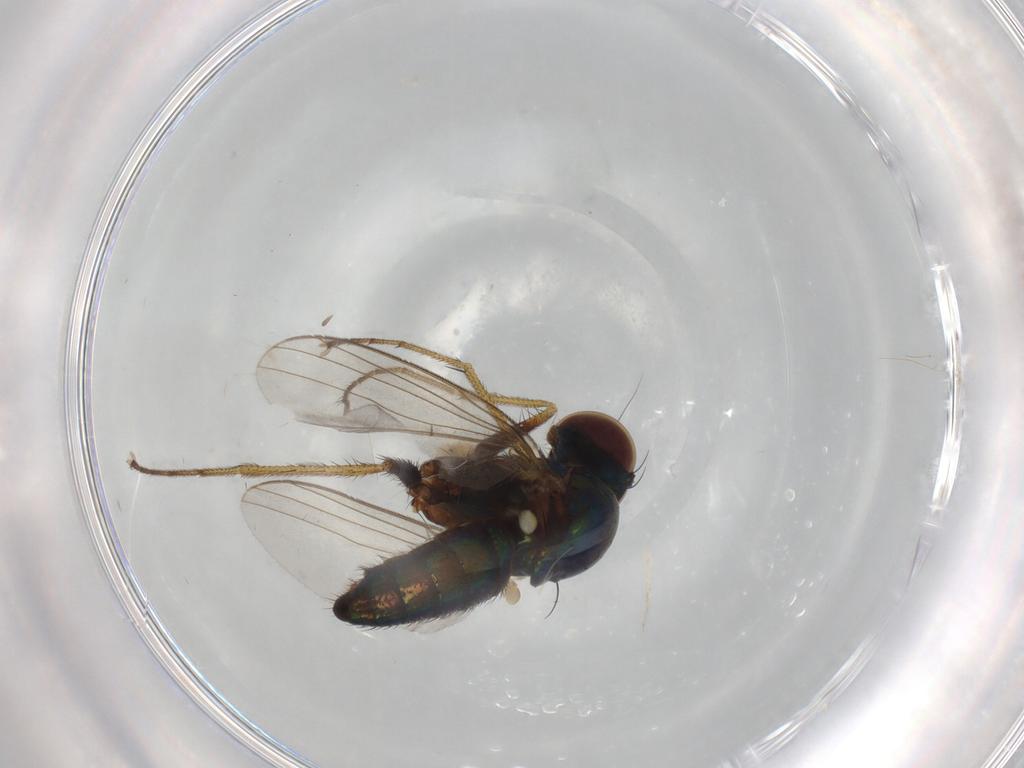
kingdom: Animalia
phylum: Arthropoda
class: Insecta
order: Diptera
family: Dolichopodidae
